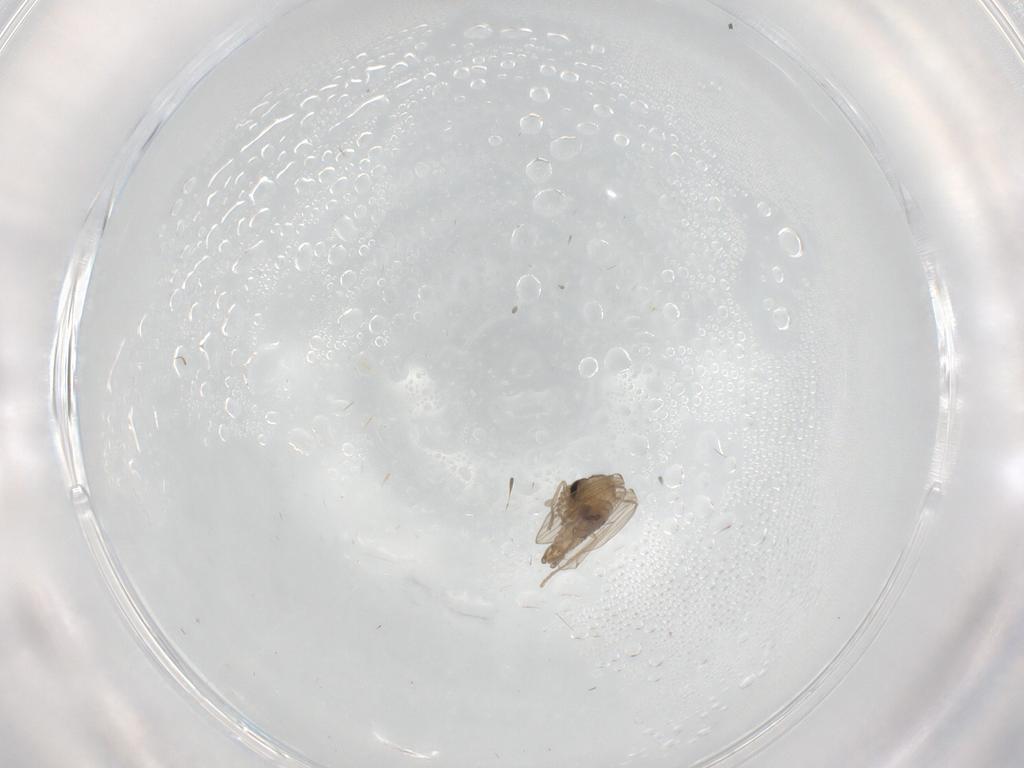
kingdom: Animalia
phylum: Arthropoda
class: Insecta
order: Diptera
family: Psychodidae
